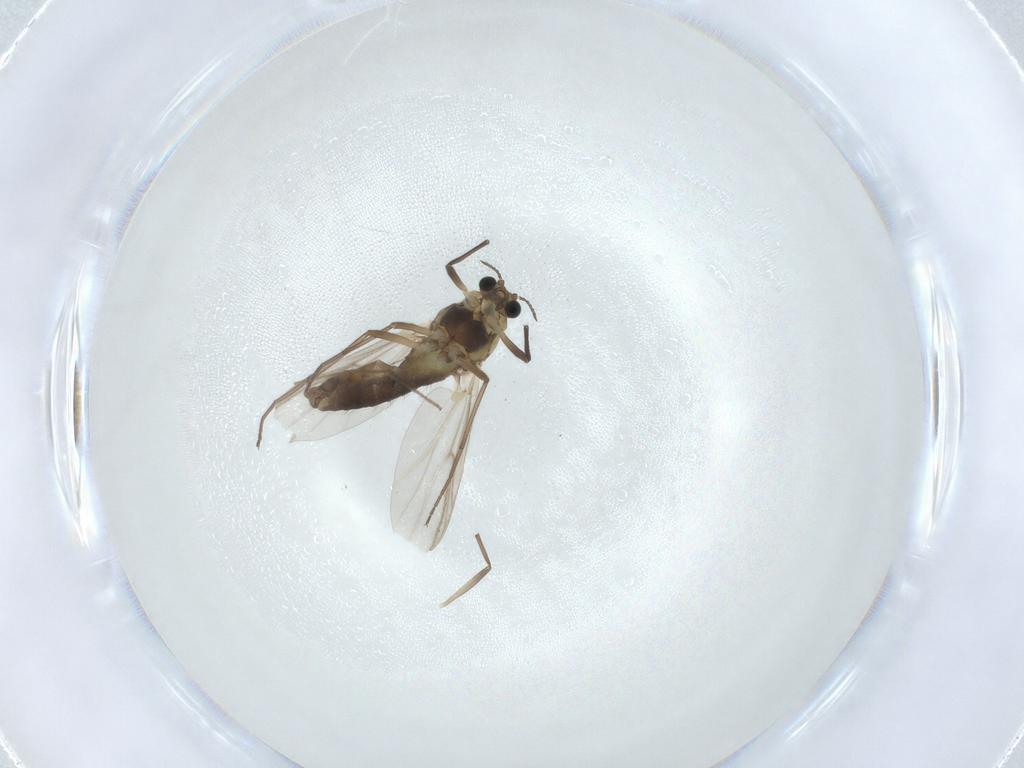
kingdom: Animalia
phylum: Arthropoda
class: Insecta
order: Diptera
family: Chironomidae
